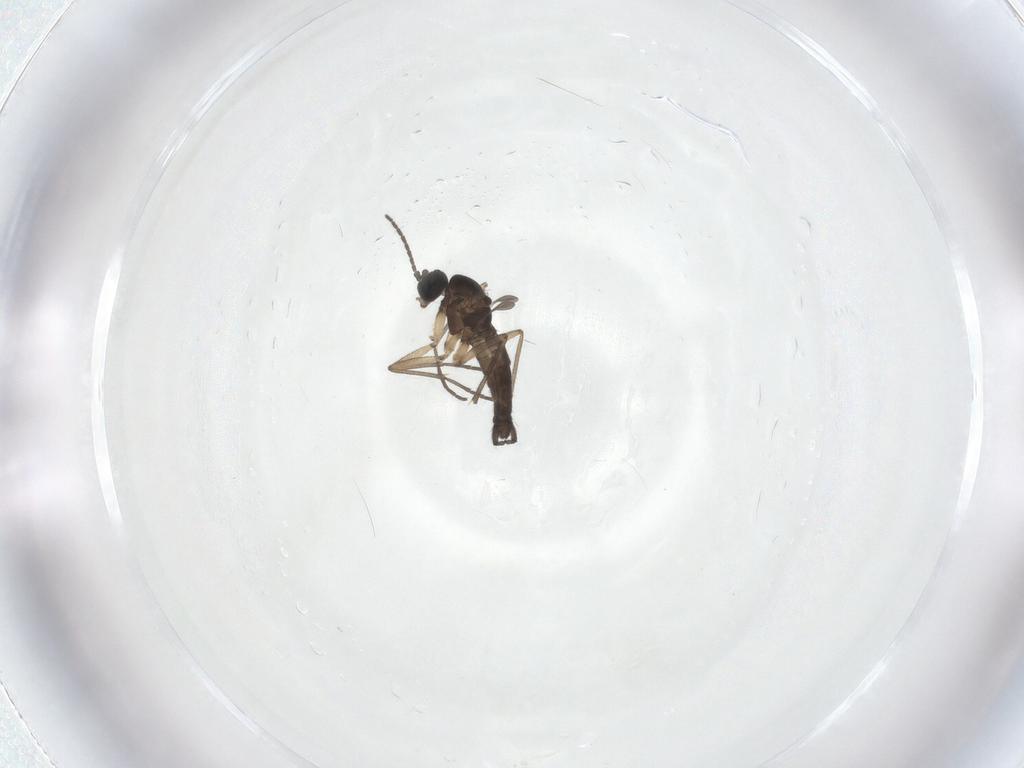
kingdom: Animalia
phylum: Arthropoda
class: Insecta
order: Diptera
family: Sciaridae
